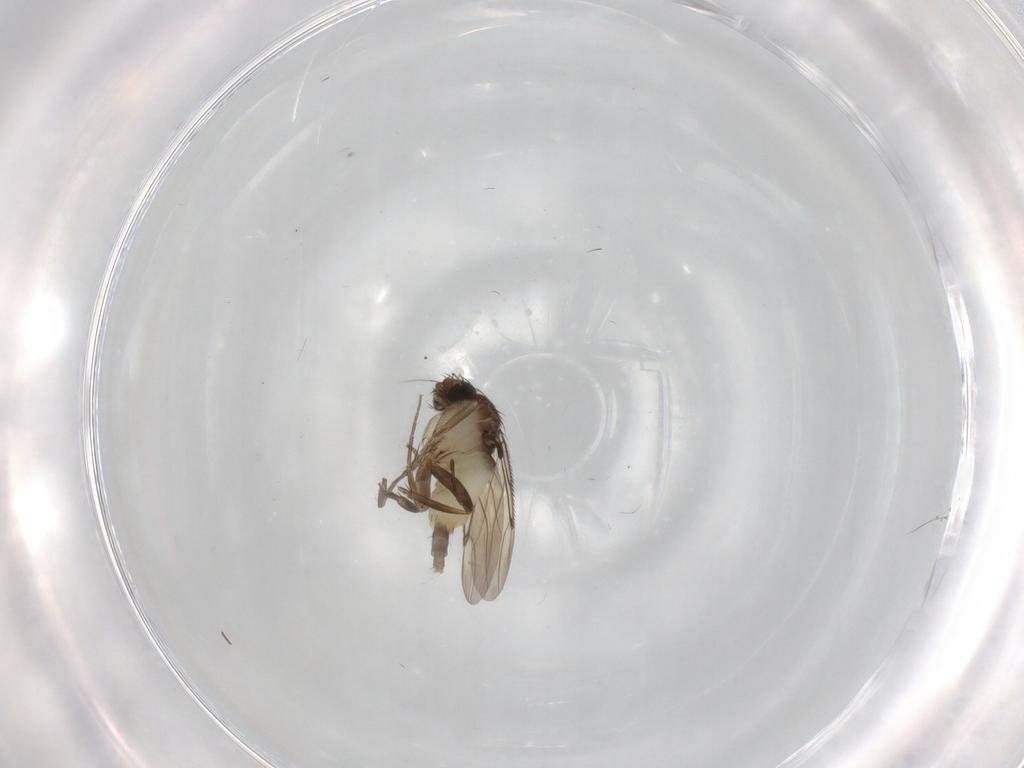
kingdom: Animalia
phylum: Arthropoda
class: Insecta
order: Diptera
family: Phoridae
